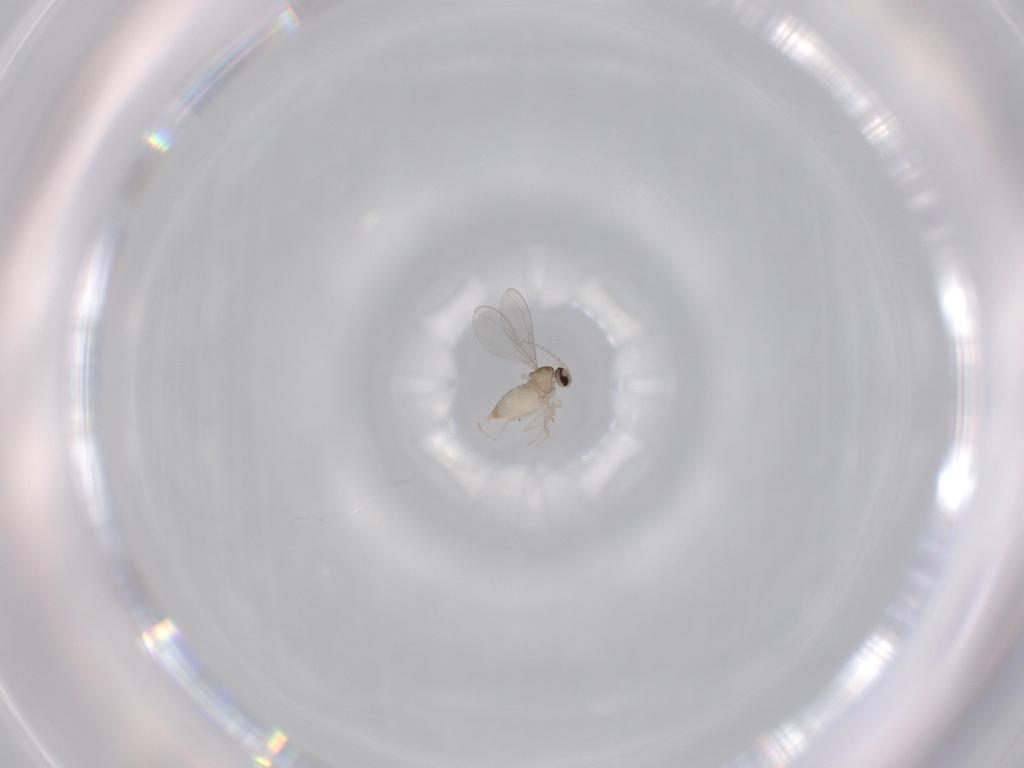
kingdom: Animalia
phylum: Arthropoda
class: Insecta
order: Diptera
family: Cecidomyiidae
